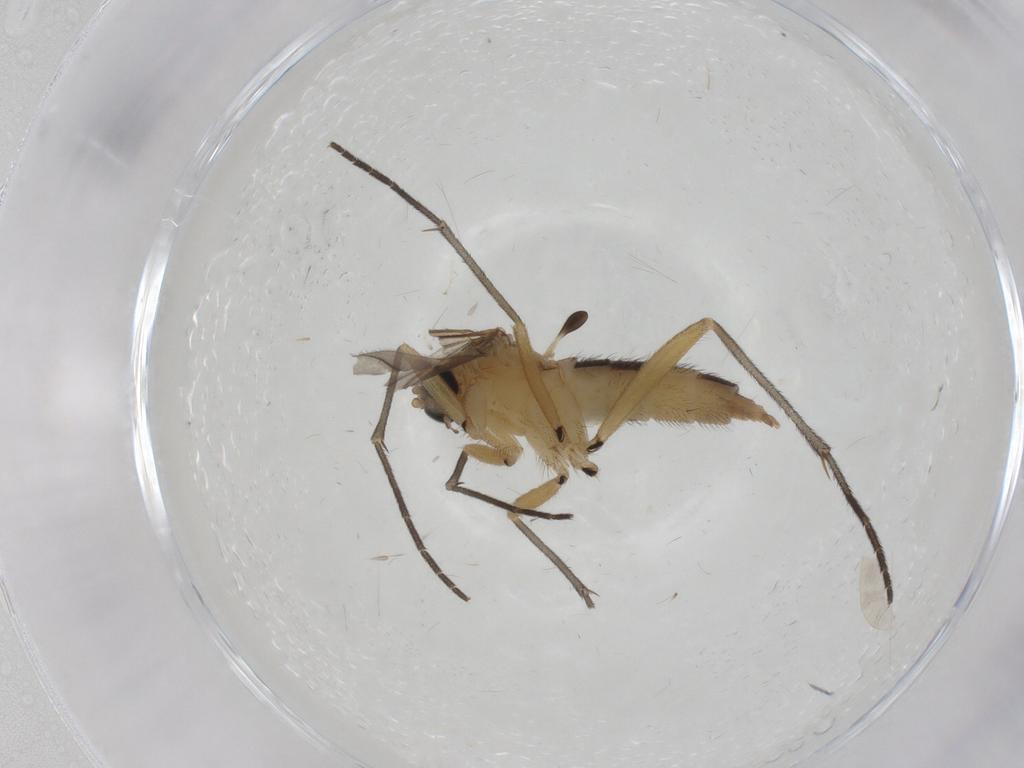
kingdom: Animalia
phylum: Arthropoda
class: Insecta
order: Diptera
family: Sciaridae
